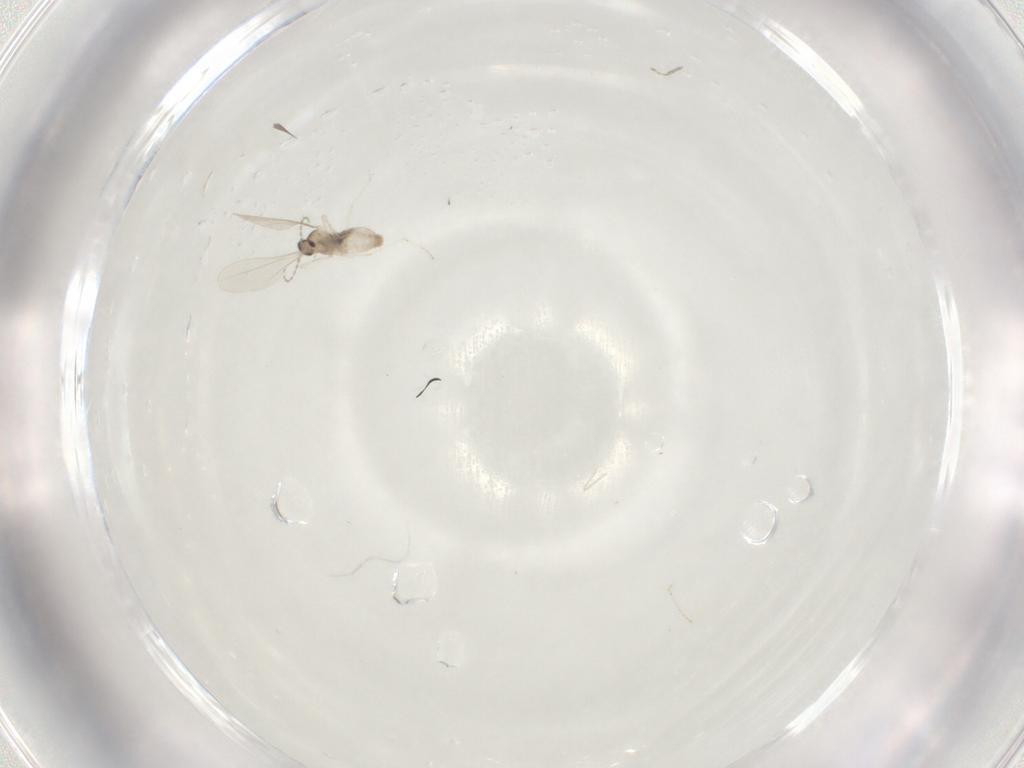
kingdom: Animalia
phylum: Arthropoda
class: Insecta
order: Diptera
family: Cecidomyiidae
